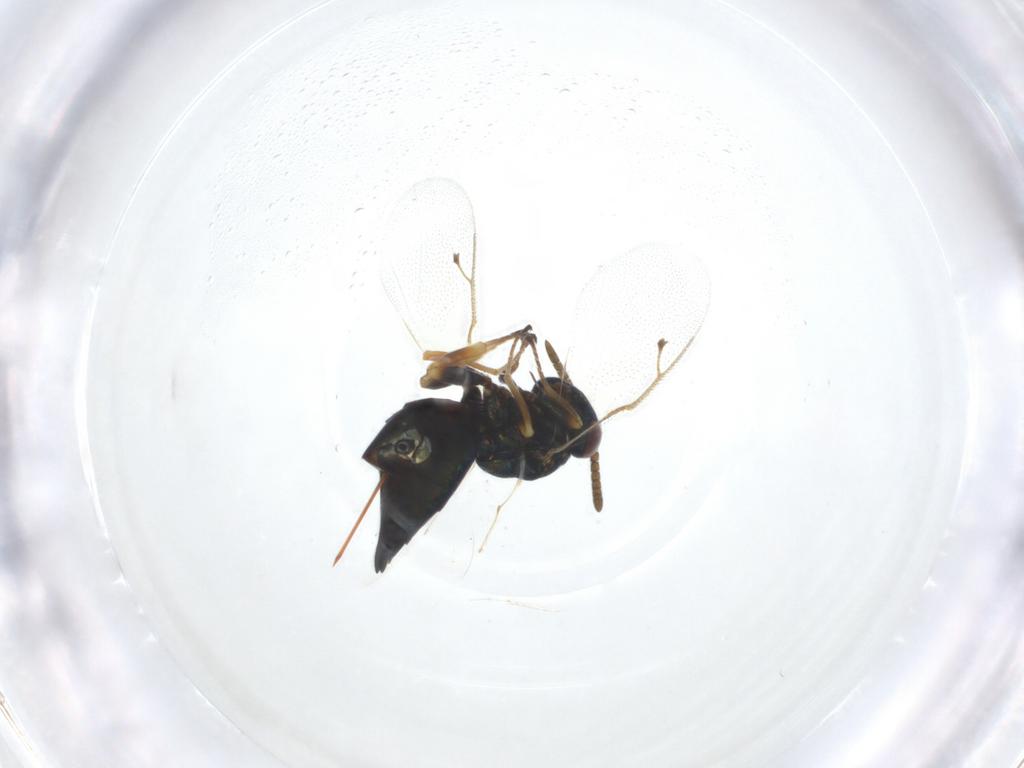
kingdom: Animalia
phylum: Arthropoda
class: Insecta
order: Hymenoptera
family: Pteromalidae
